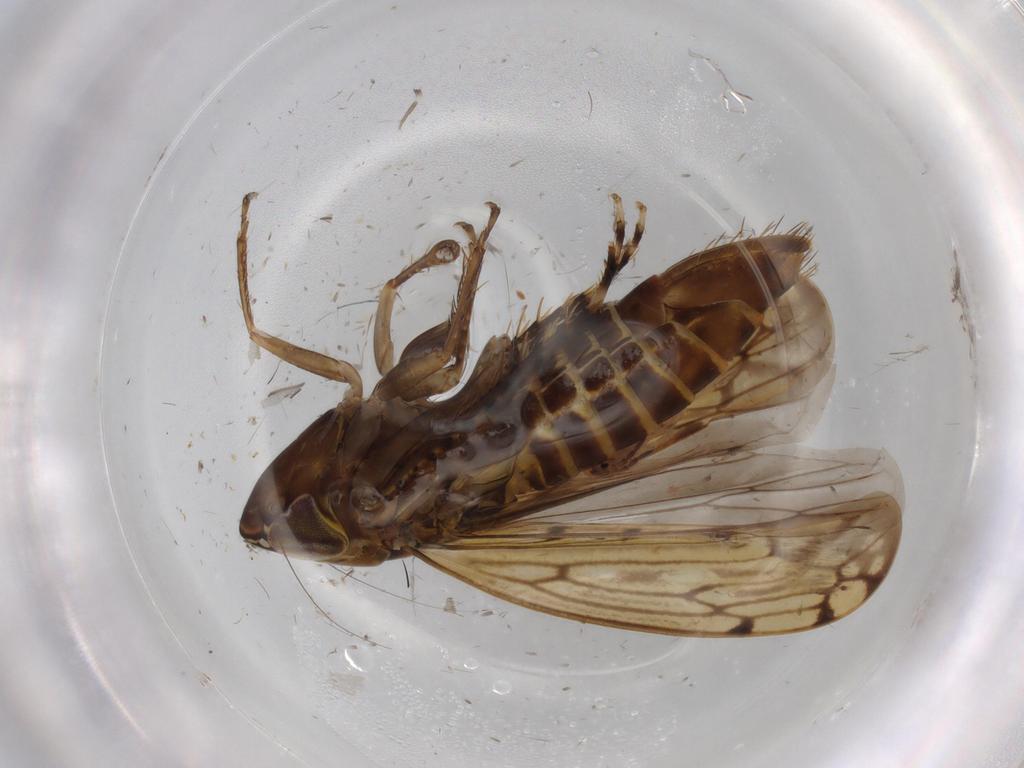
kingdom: Animalia
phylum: Arthropoda
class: Insecta
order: Hemiptera
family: Cicadellidae
